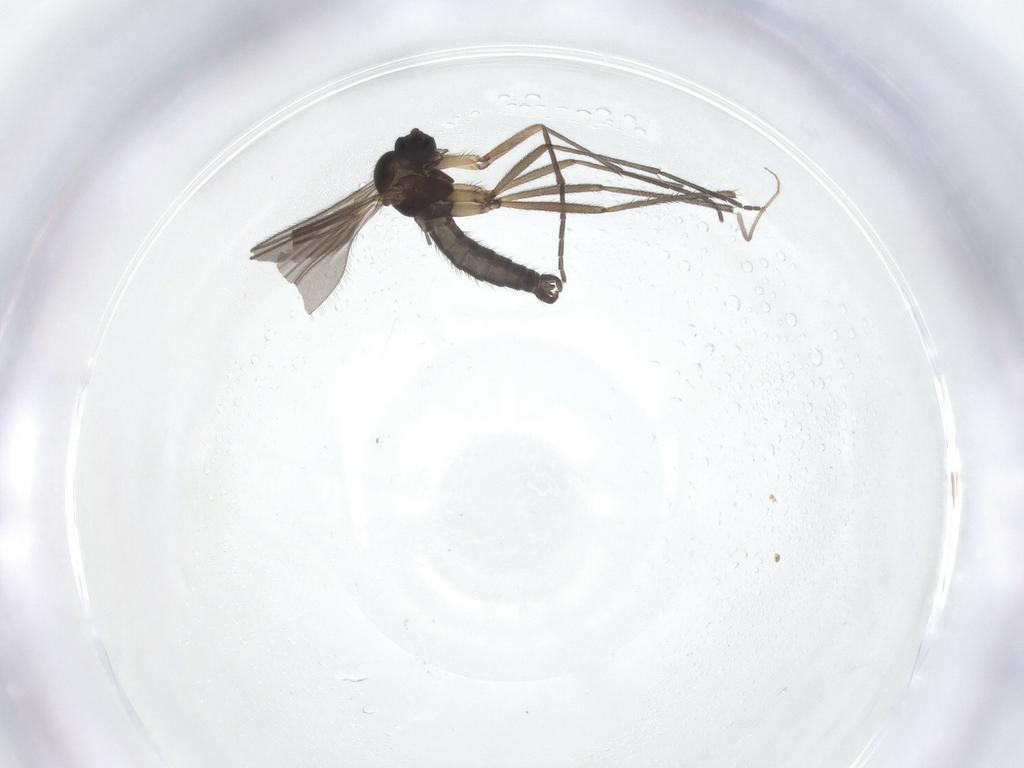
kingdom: Animalia
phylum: Arthropoda
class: Insecta
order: Diptera
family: Sciaridae
